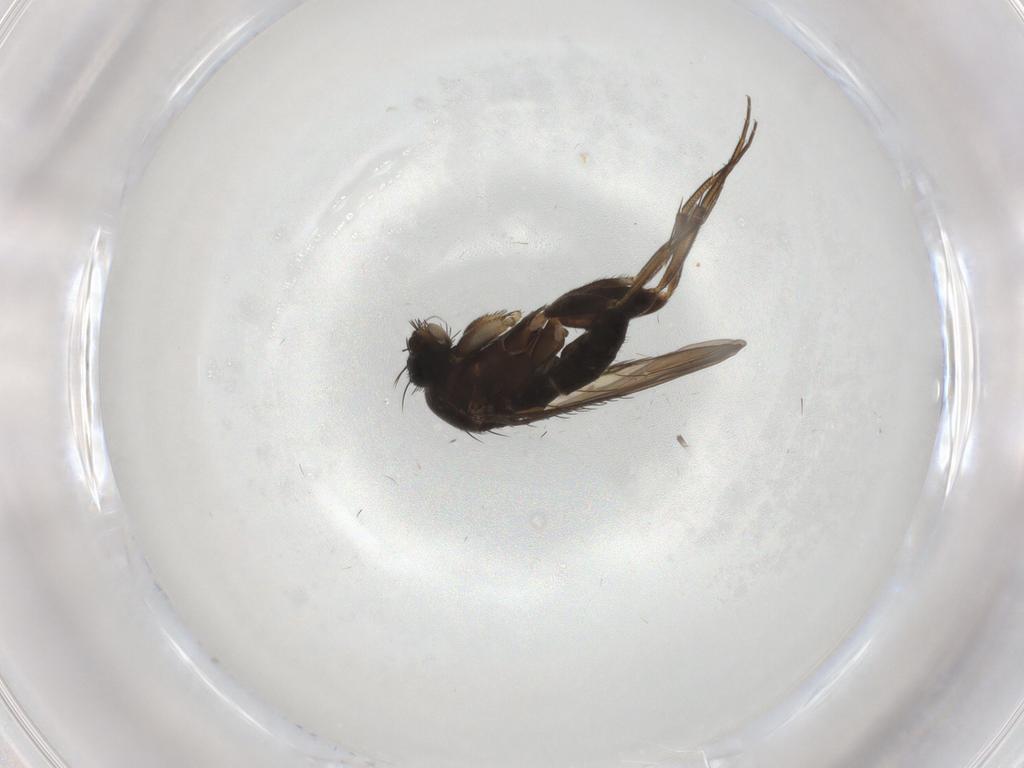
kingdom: Animalia
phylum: Arthropoda
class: Insecta
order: Diptera
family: Phoridae
